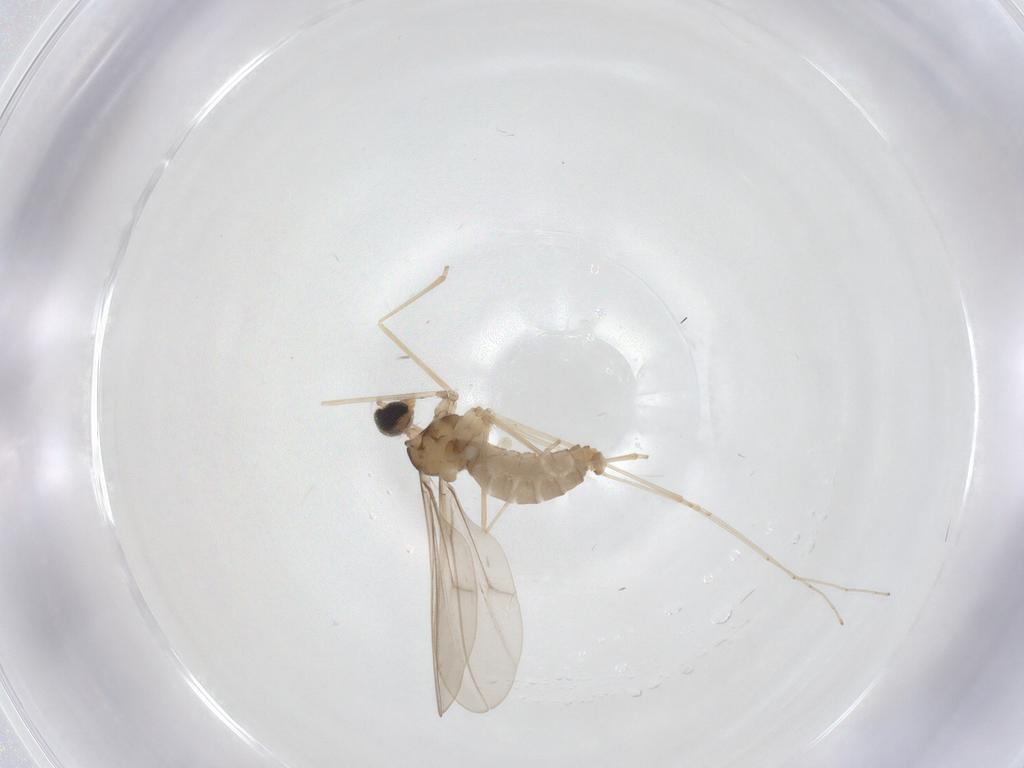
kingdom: Animalia
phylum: Arthropoda
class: Insecta
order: Diptera
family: Cecidomyiidae
